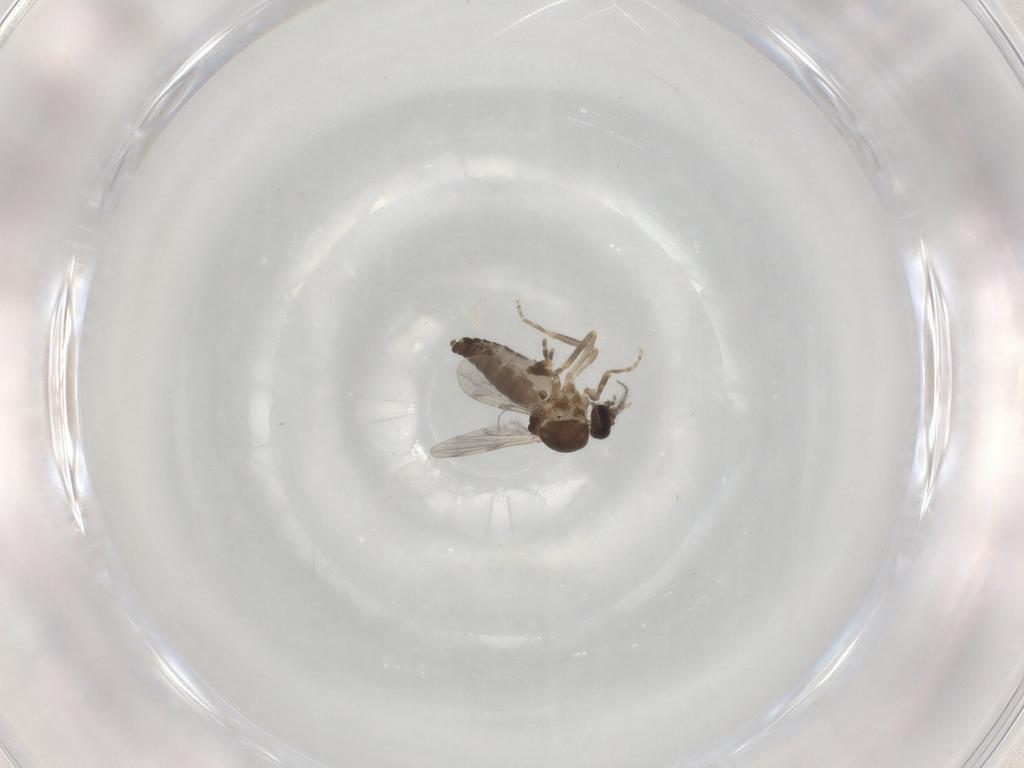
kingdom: Animalia
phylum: Arthropoda
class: Insecta
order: Diptera
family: Ceratopogonidae
